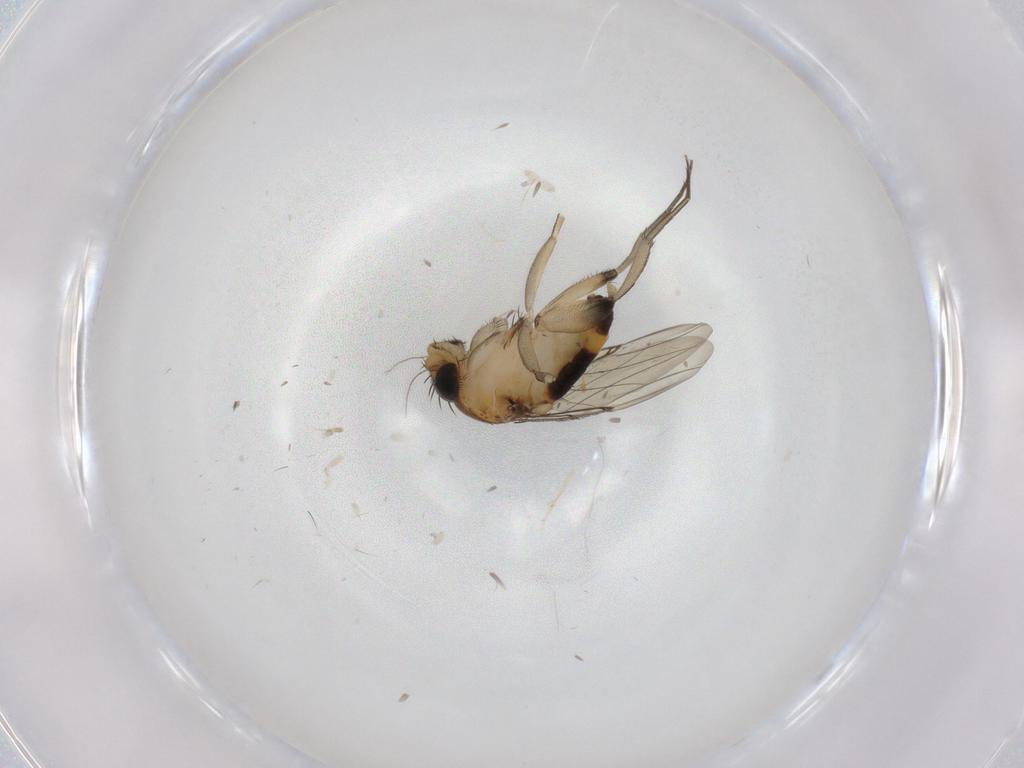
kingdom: Animalia
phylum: Arthropoda
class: Insecta
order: Diptera
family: Phoridae
